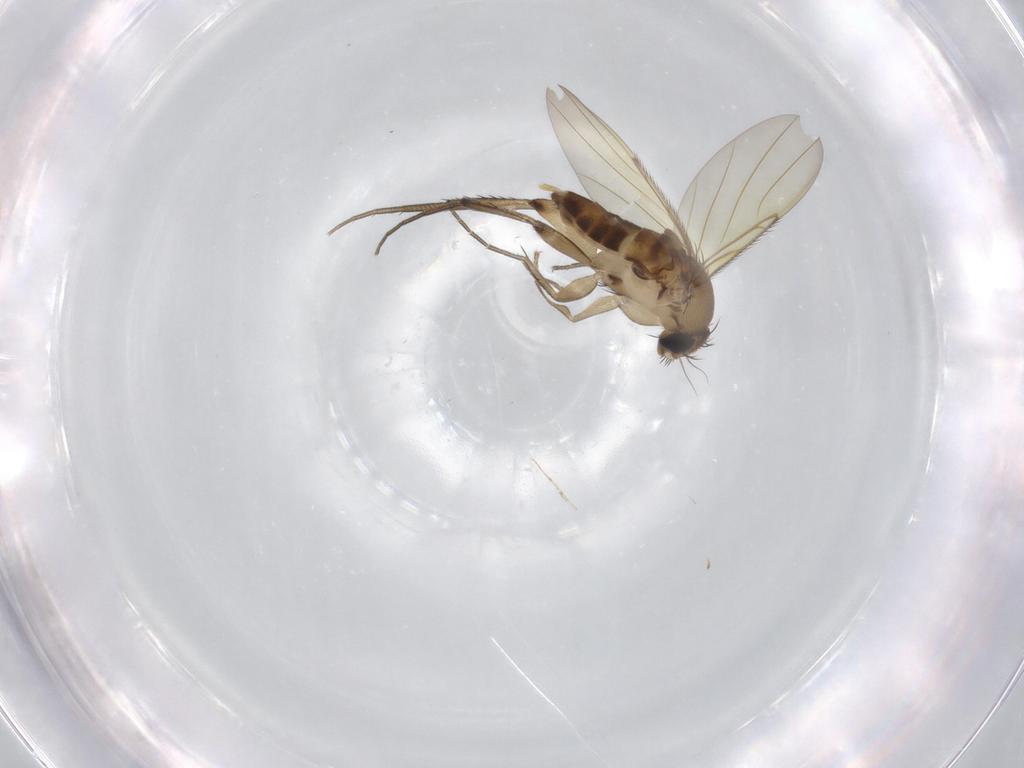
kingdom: Animalia
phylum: Arthropoda
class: Insecta
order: Diptera
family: Phoridae
